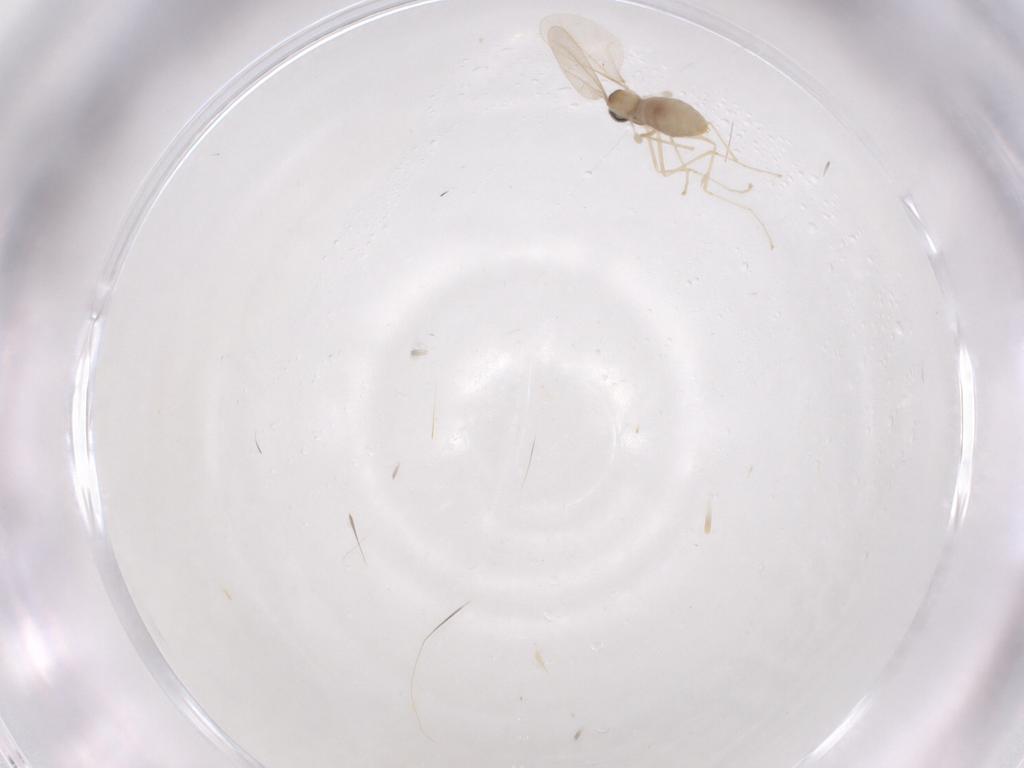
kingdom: Animalia
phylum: Arthropoda
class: Insecta
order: Diptera
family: Cecidomyiidae
